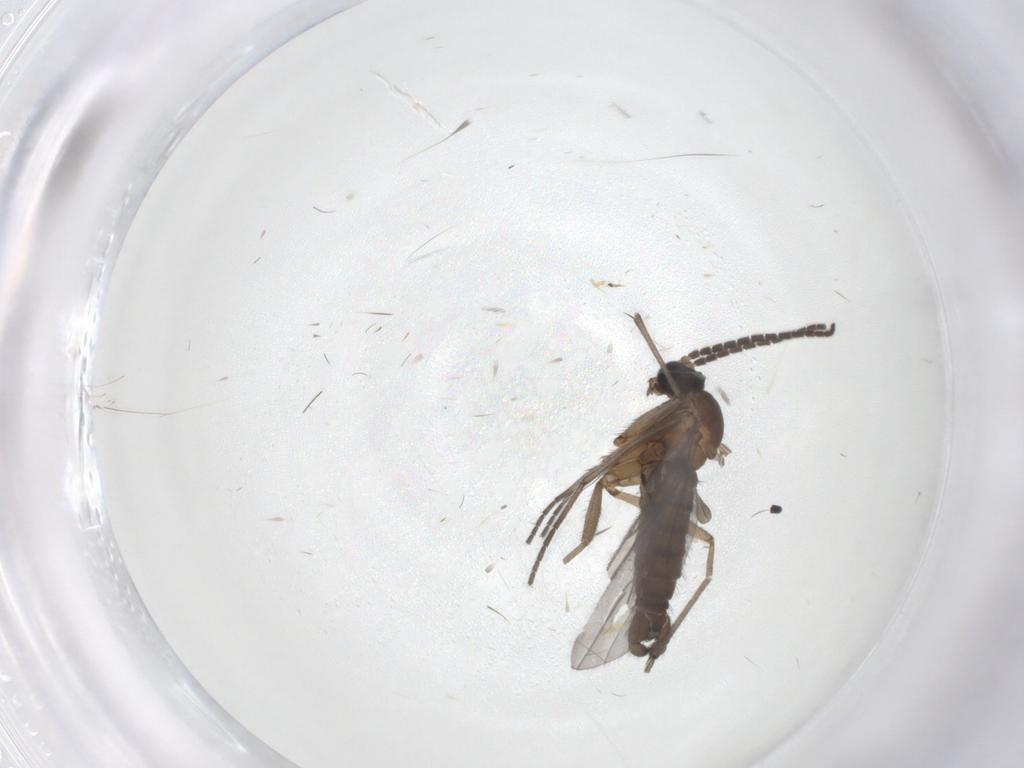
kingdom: Animalia
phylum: Arthropoda
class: Insecta
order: Diptera
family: Sciaridae
